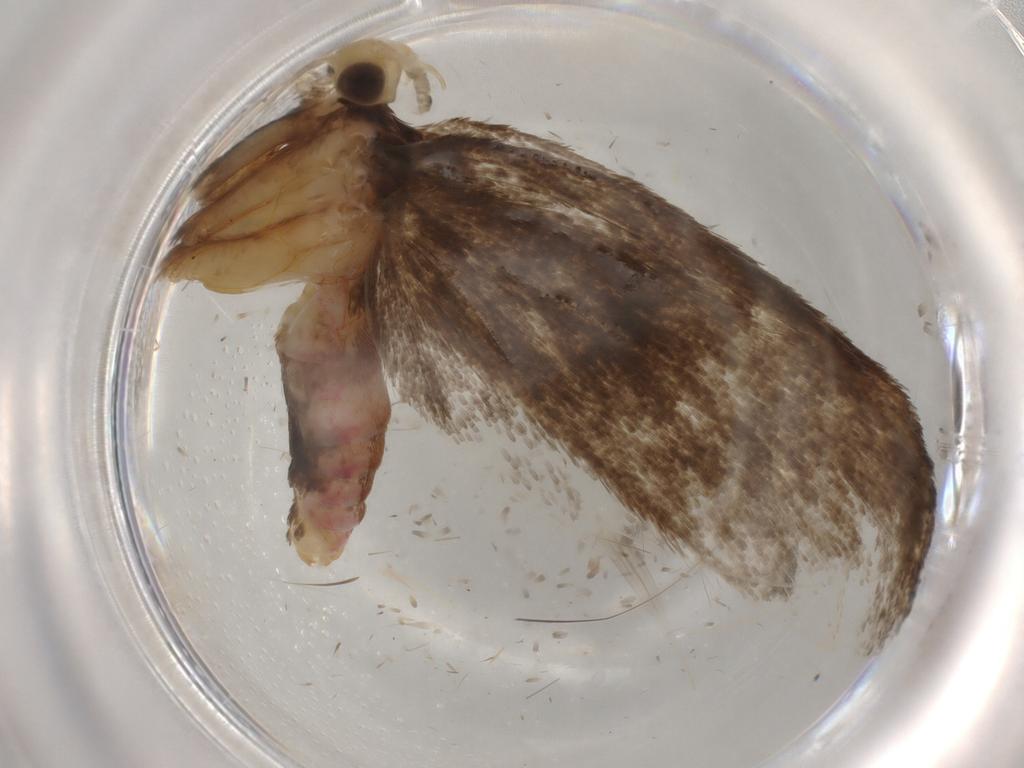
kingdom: Animalia
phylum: Arthropoda
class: Insecta
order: Lepidoptera
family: Lecithoceridae
